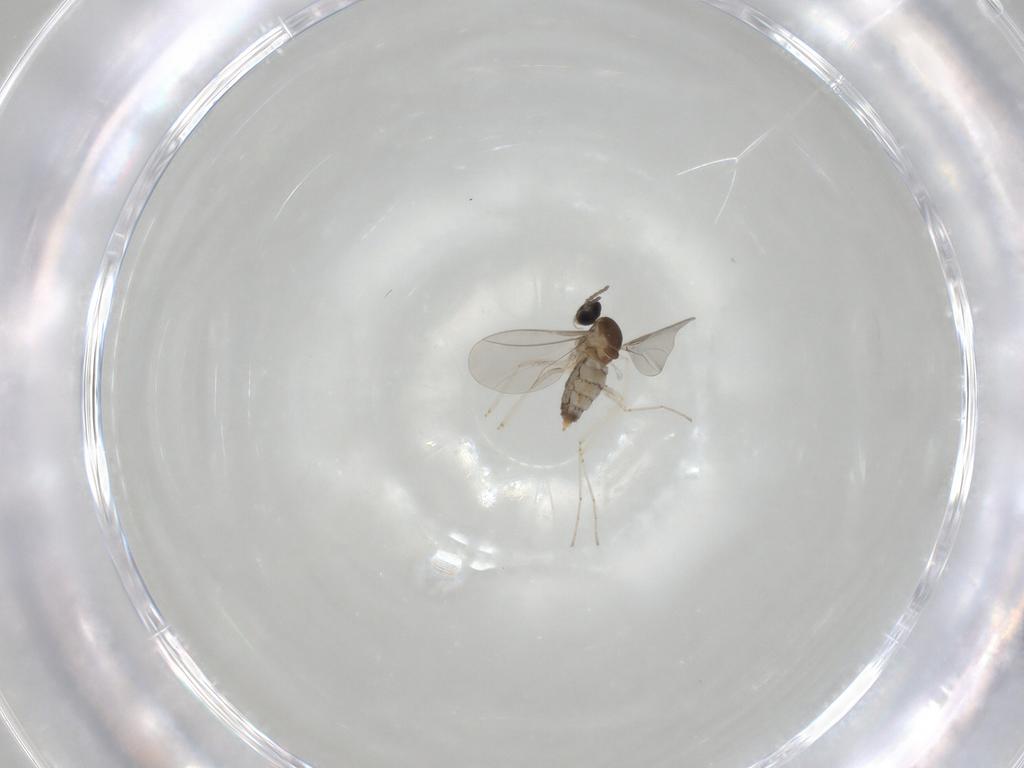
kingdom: Animalia
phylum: Arthropoda
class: Insecta
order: Diptera
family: Cecidomyiidae
